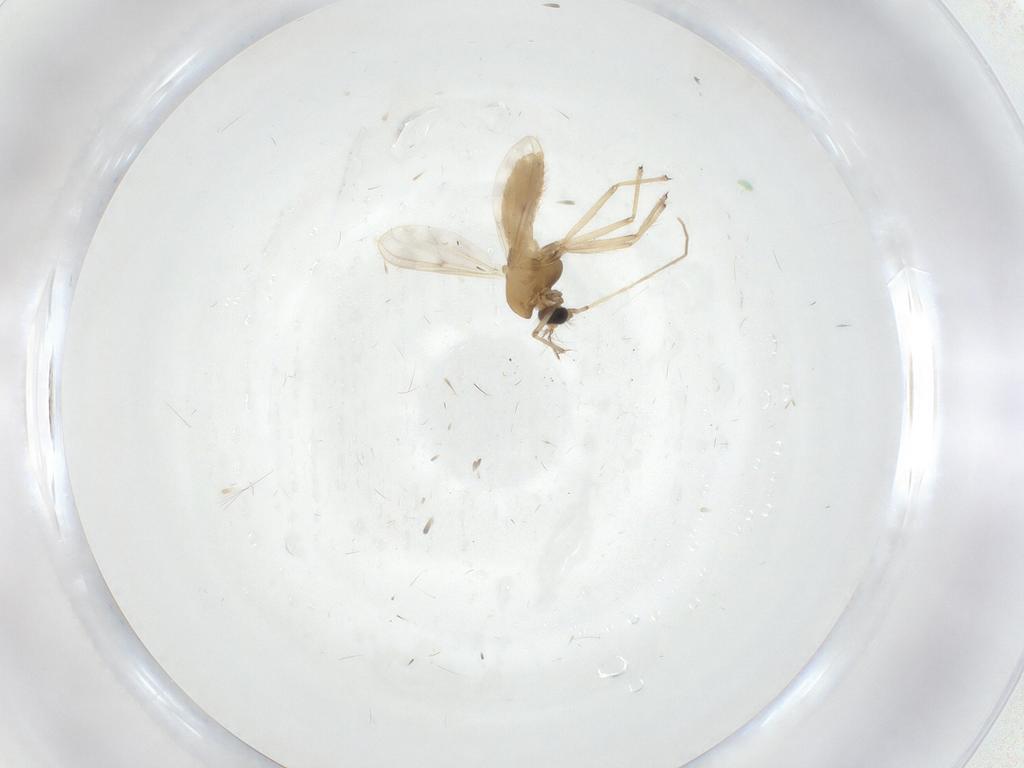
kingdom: Animalia
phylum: Arthropoda
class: Insecta
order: Diptera
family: Chironomidae
